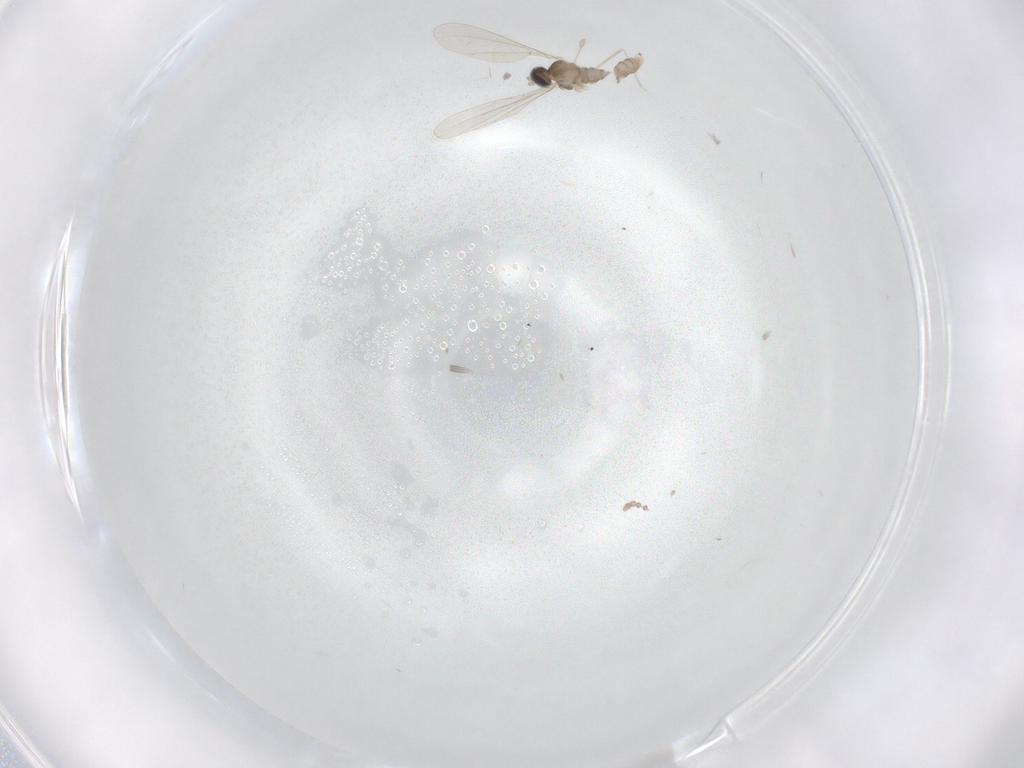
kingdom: Animalia
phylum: Arthropoda
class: Insecta
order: Diptera
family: Cecidomyiidae
